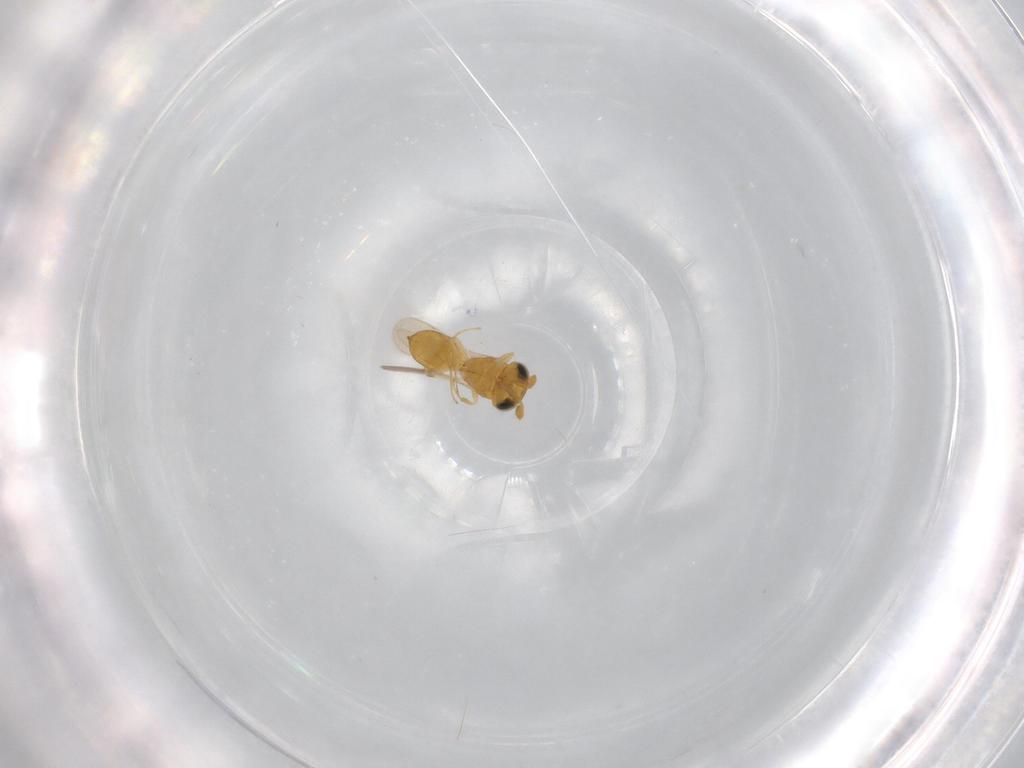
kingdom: Animalia
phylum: Arthropoda
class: Insecta
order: Hymenoptera
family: Scelionidae
